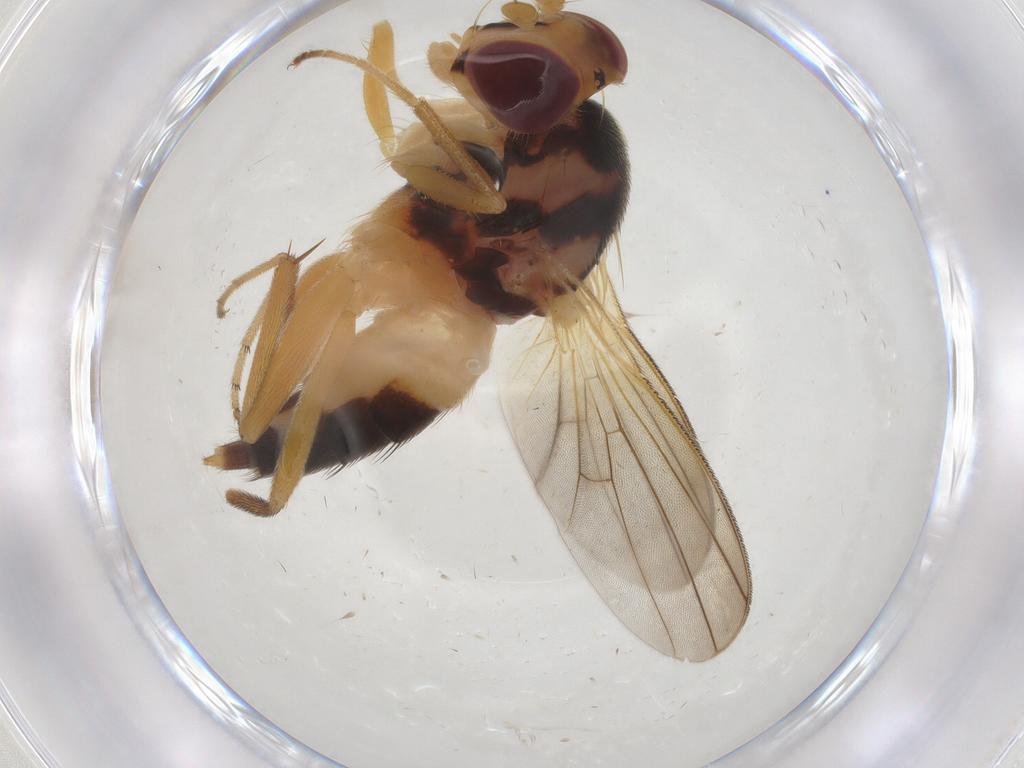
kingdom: Animalia
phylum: Arthropoda
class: Insecta
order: Diptera
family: Clusiidae
